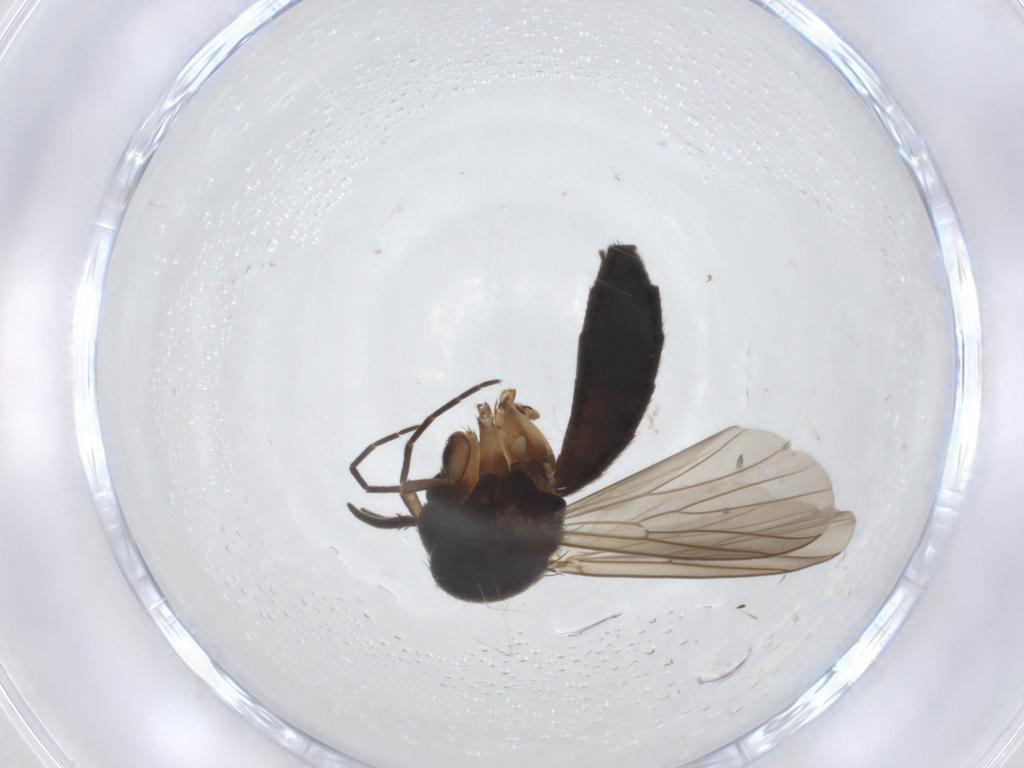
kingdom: Animalia
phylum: Arthropoda
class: Insecta
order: Diptera
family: Mycetophilidae
